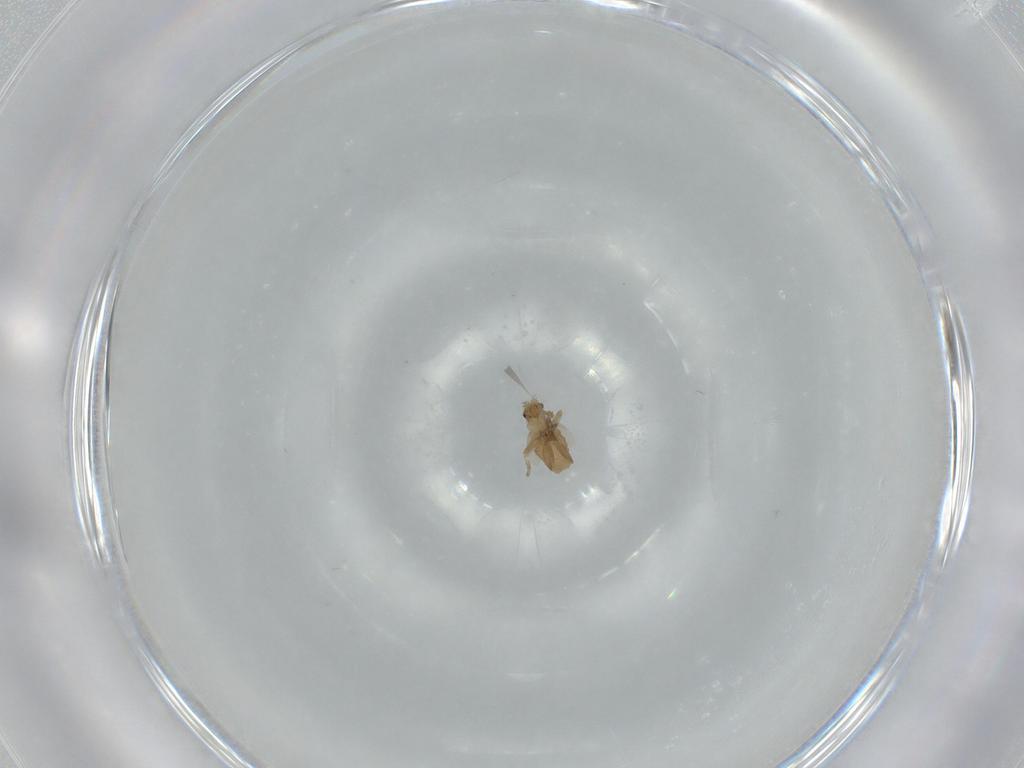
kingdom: Animalia
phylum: Arthropoda
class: Insecta
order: Diptera
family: Phoridae
